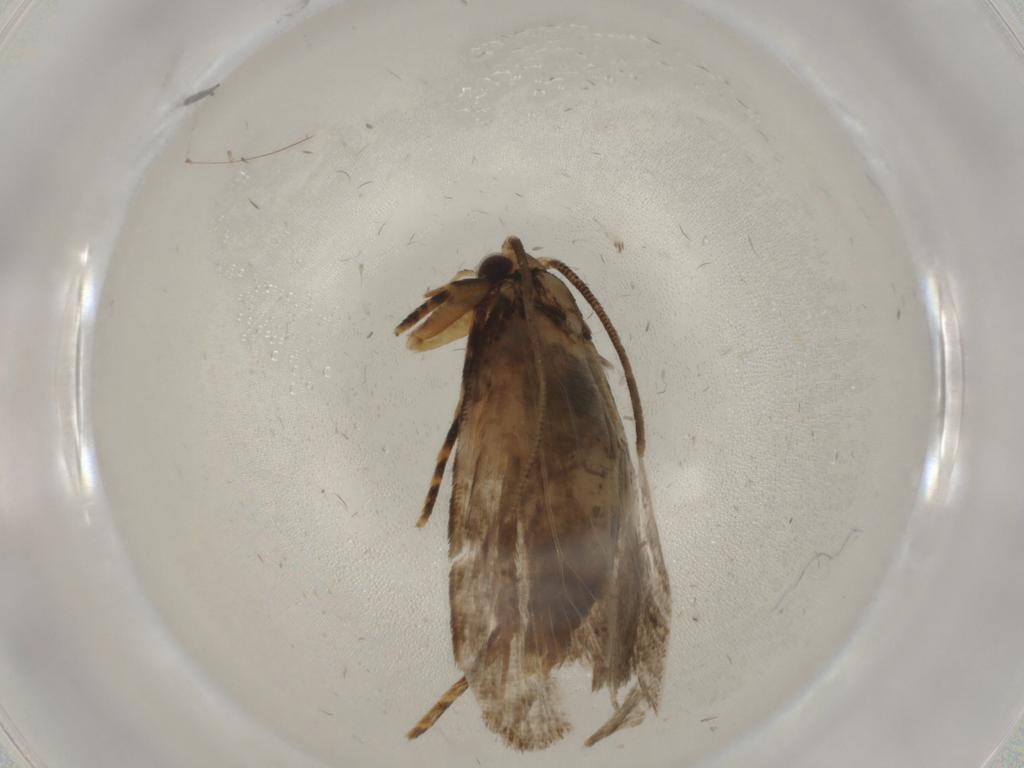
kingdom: Animalia
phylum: Arthropoda
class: Insecta
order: Lepidoptera
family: Tineidae
